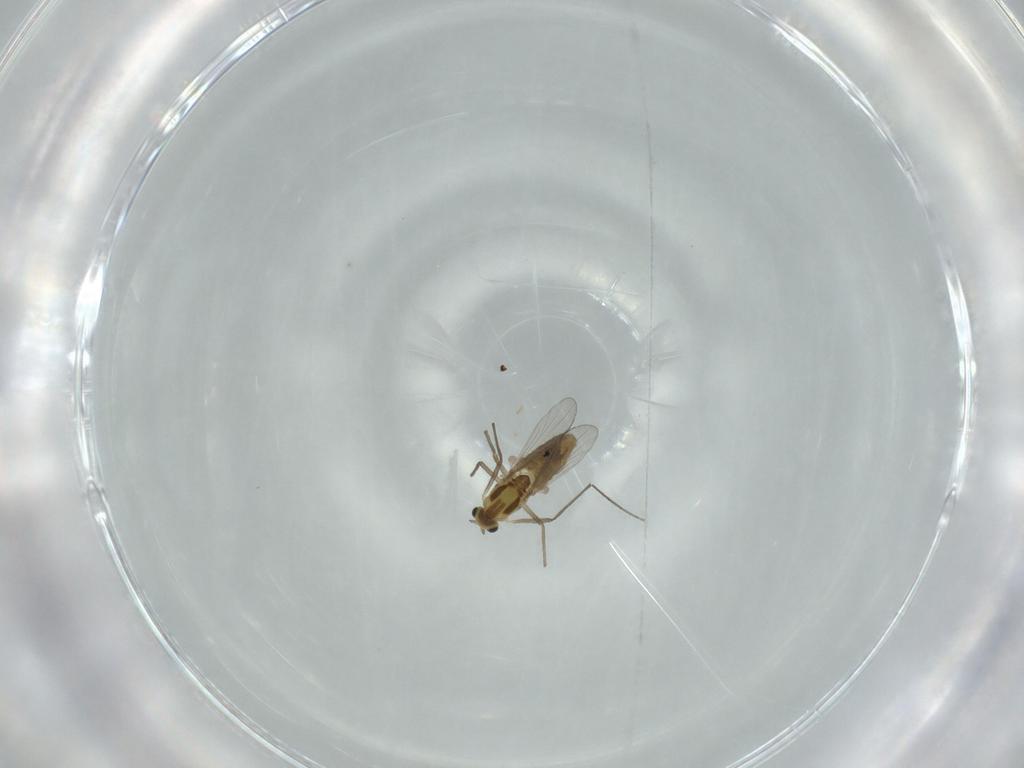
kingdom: Animalia
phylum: Arthropoda
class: Insecta
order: Diptera
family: Chironomidae
